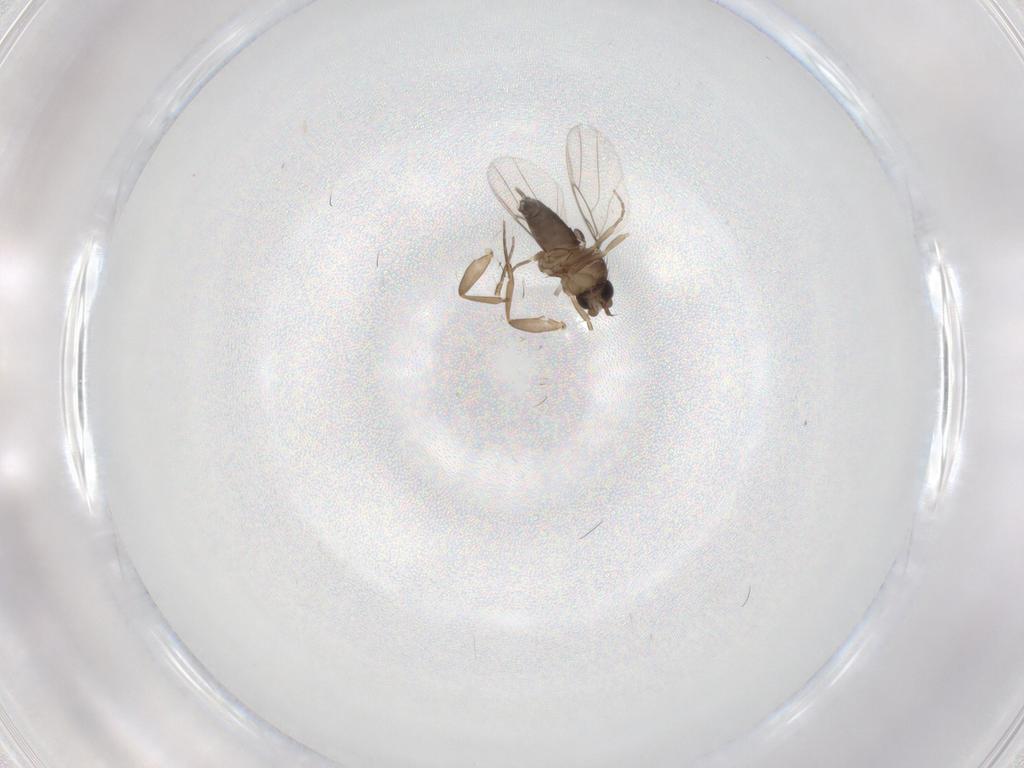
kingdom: Animalia
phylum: Arthropoda
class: Insecta
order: Diptera
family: Phoridae
